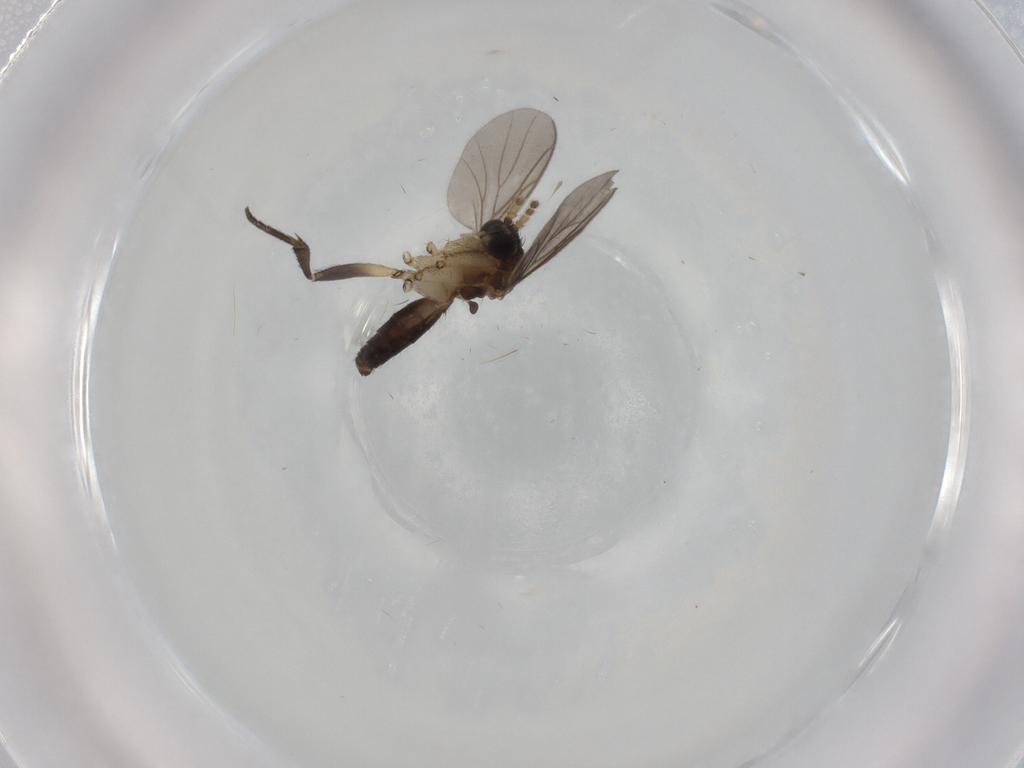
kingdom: Animalia
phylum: Arthropoda
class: Insecta
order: Diptera
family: Phoridae
